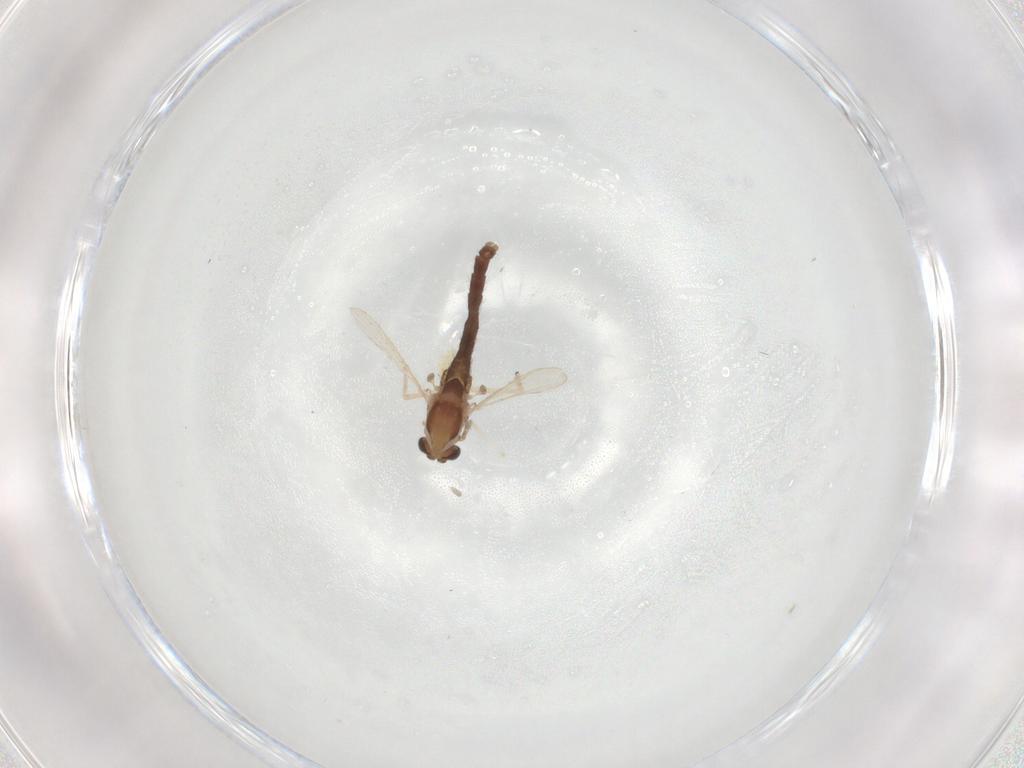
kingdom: Animalia
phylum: Arthropoda
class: Insecta
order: Diptera
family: Chironomidae
